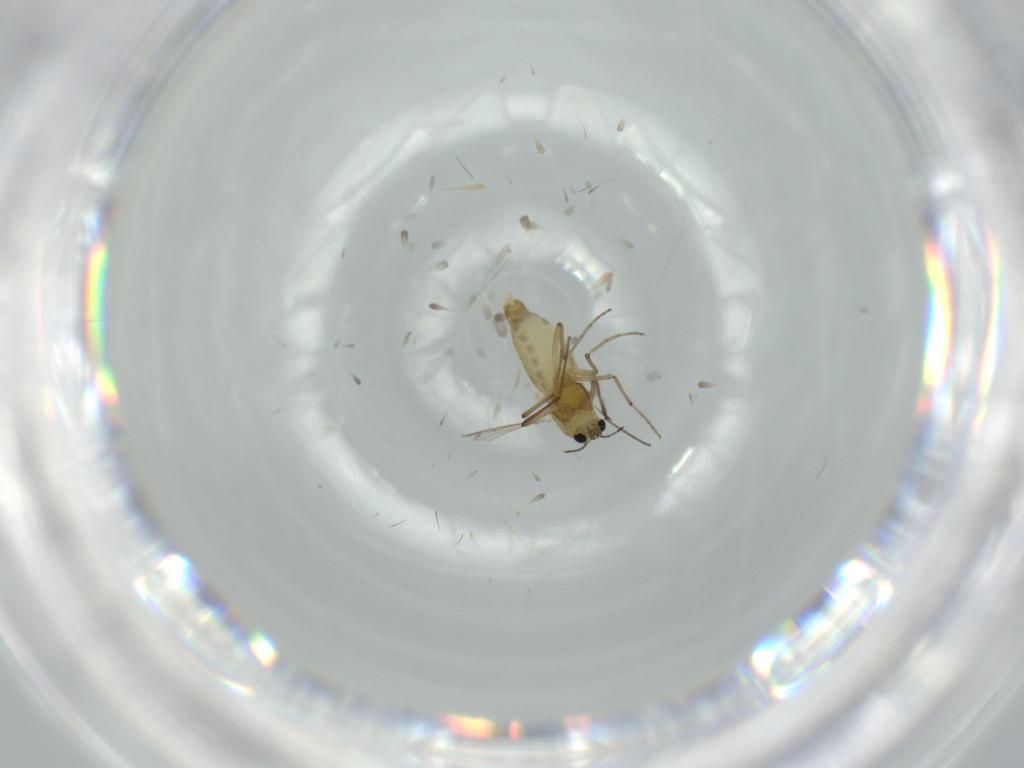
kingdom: Animalia
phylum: Arthropoda
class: Insecta
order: Diptera
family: Chironomidae
